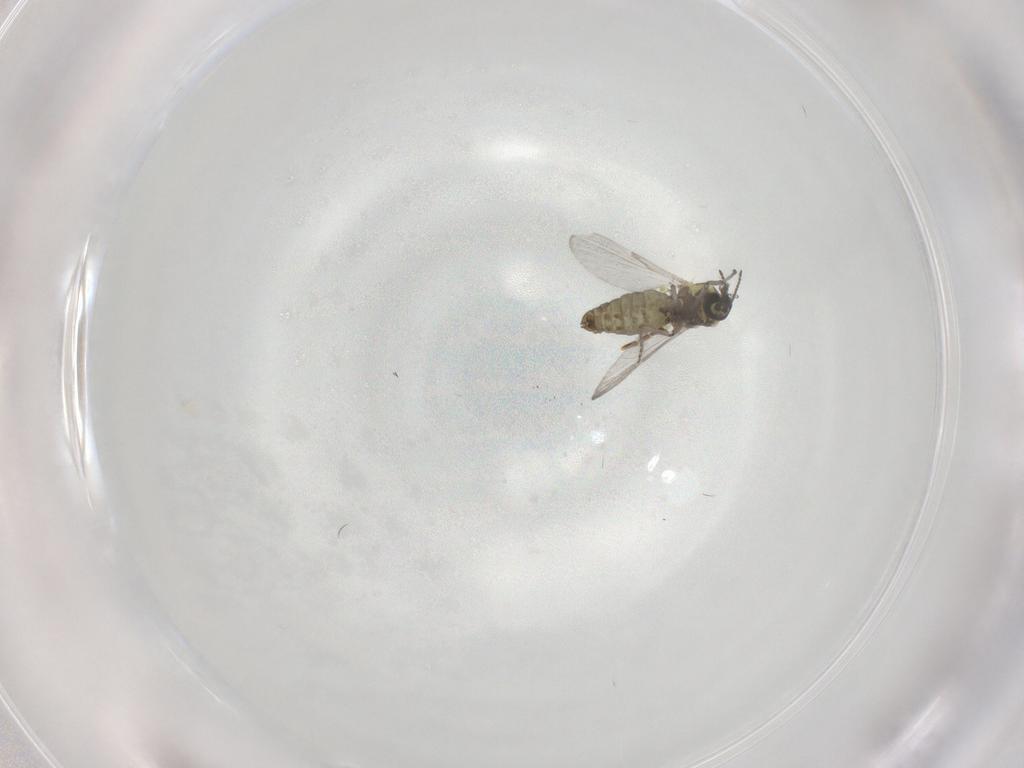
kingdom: Animalia
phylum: Arthropoda
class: Insecta
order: Diptera
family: Ceratopogonidae
